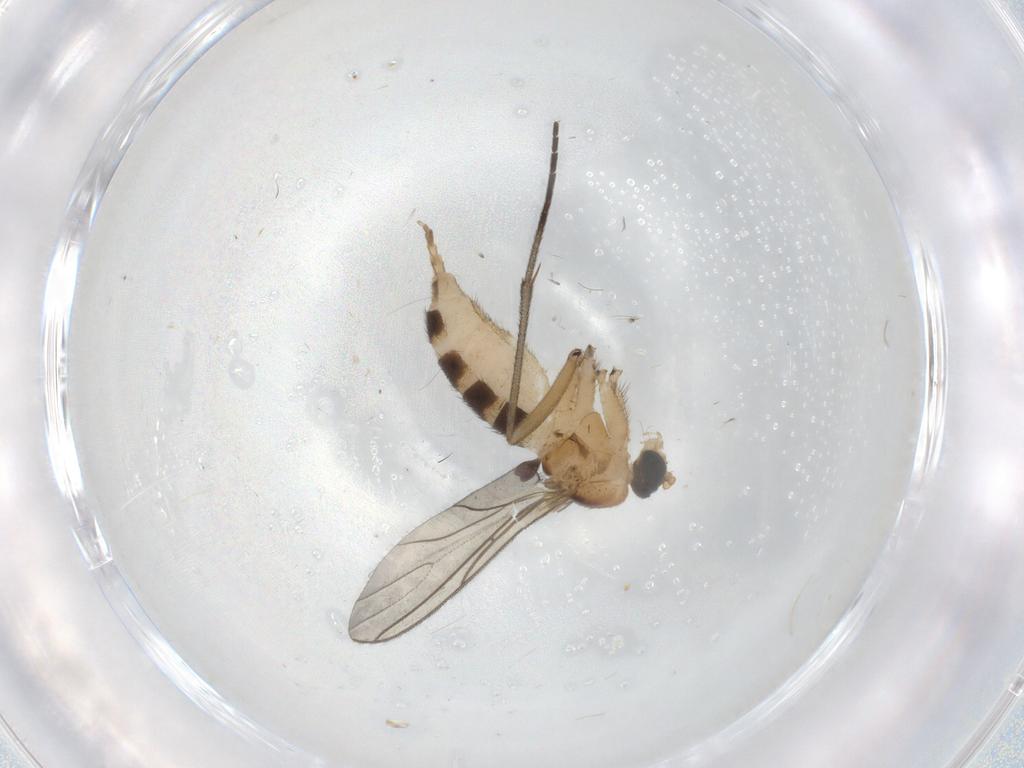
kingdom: Animalia
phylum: Arthropoda
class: Insecta
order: Diptera
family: Sciaridae
